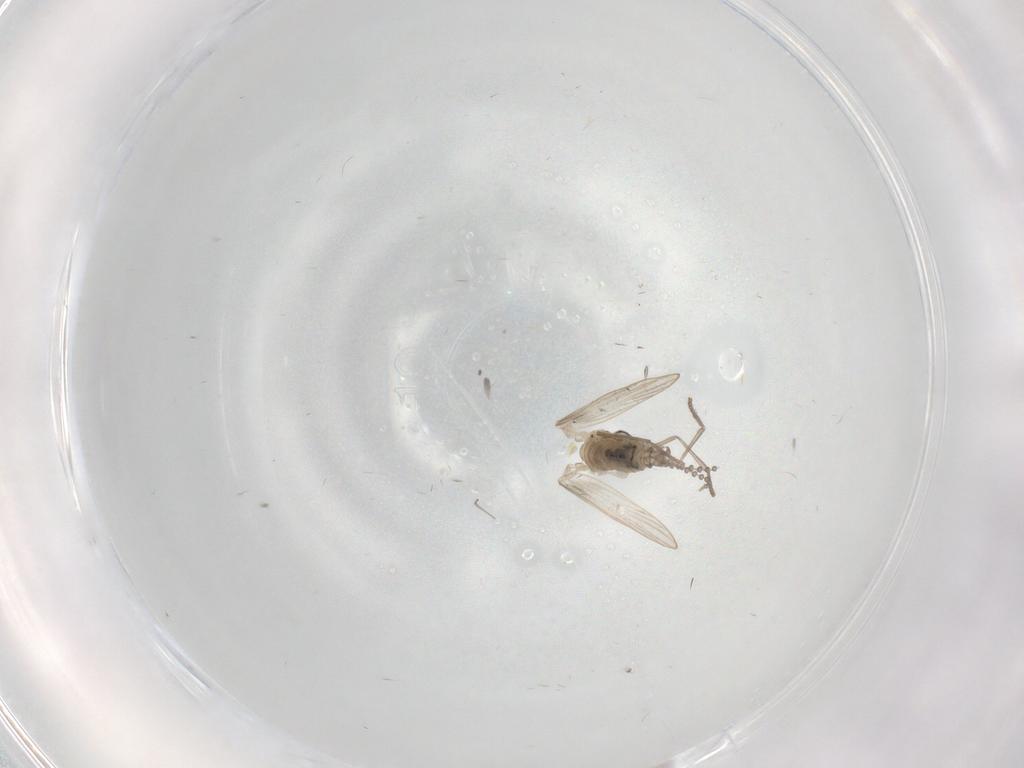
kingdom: Animalia
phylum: Arthropoda
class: Insecta
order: Diptera
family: Psychodidae
